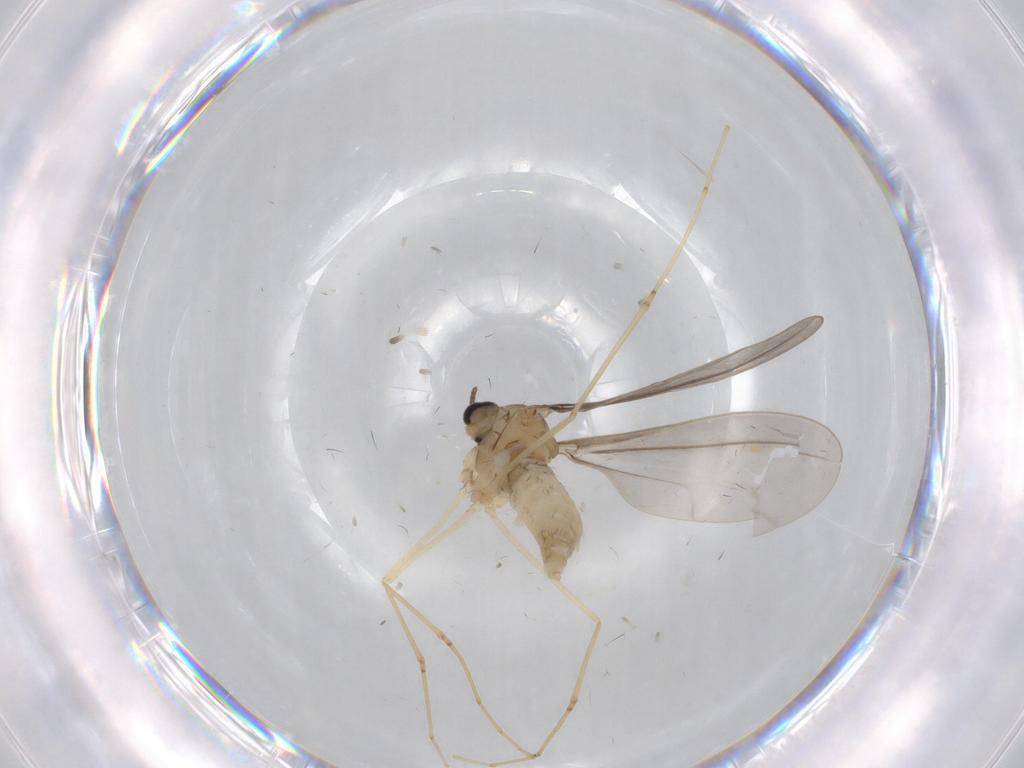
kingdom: Animalia
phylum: Arthropoda
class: Insecta
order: Diptera
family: Cecidomyiidae
